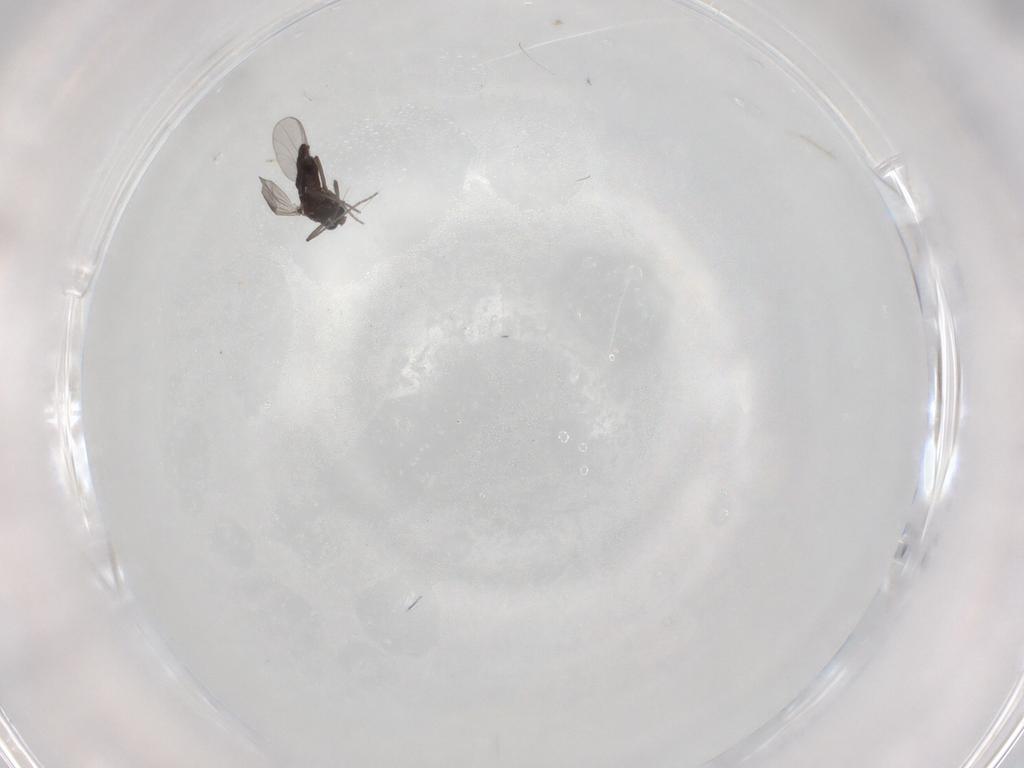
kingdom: Animalia
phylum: Arthropoda
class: Insecta
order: Diptera
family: Chironomidae
